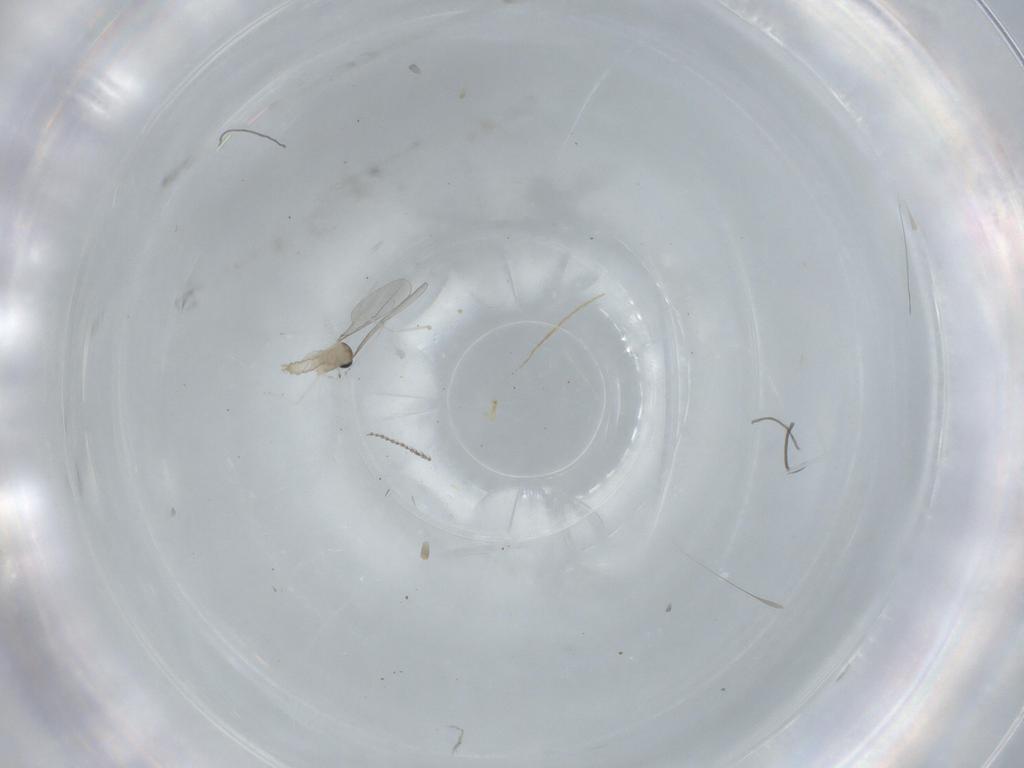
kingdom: Animalia
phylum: Arthropoda
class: Insecta
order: Diptera
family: Cecidomyiidae
